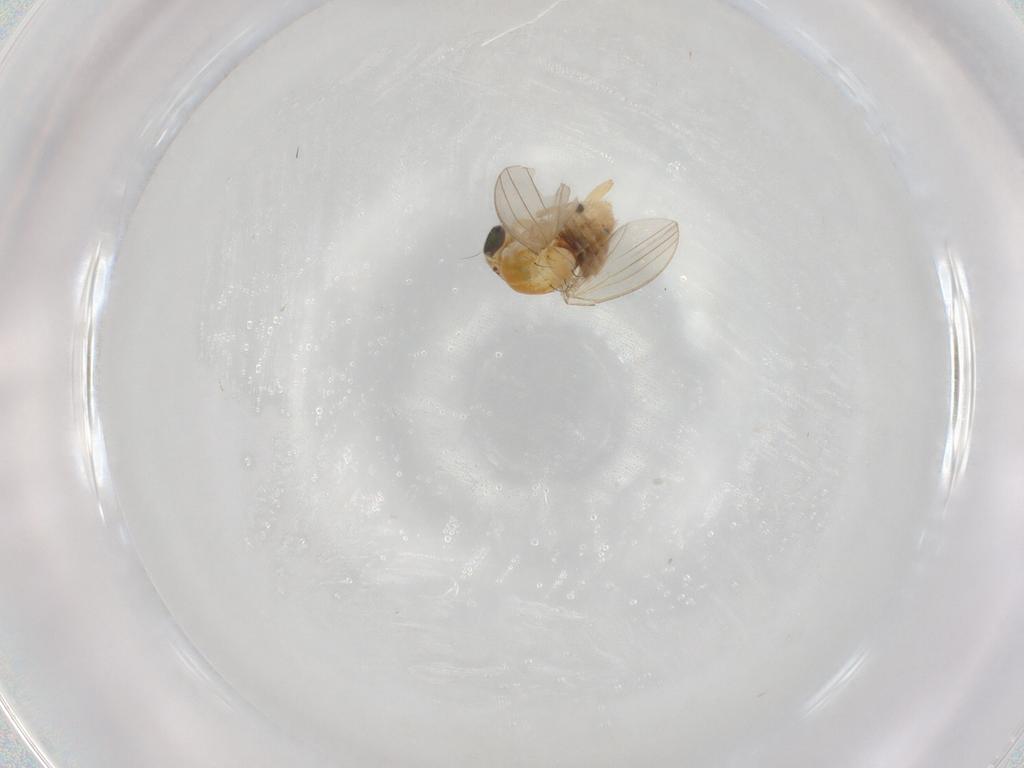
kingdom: Animalia
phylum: Arthropoda
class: Insecta
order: Diptera
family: Chyromyidae
